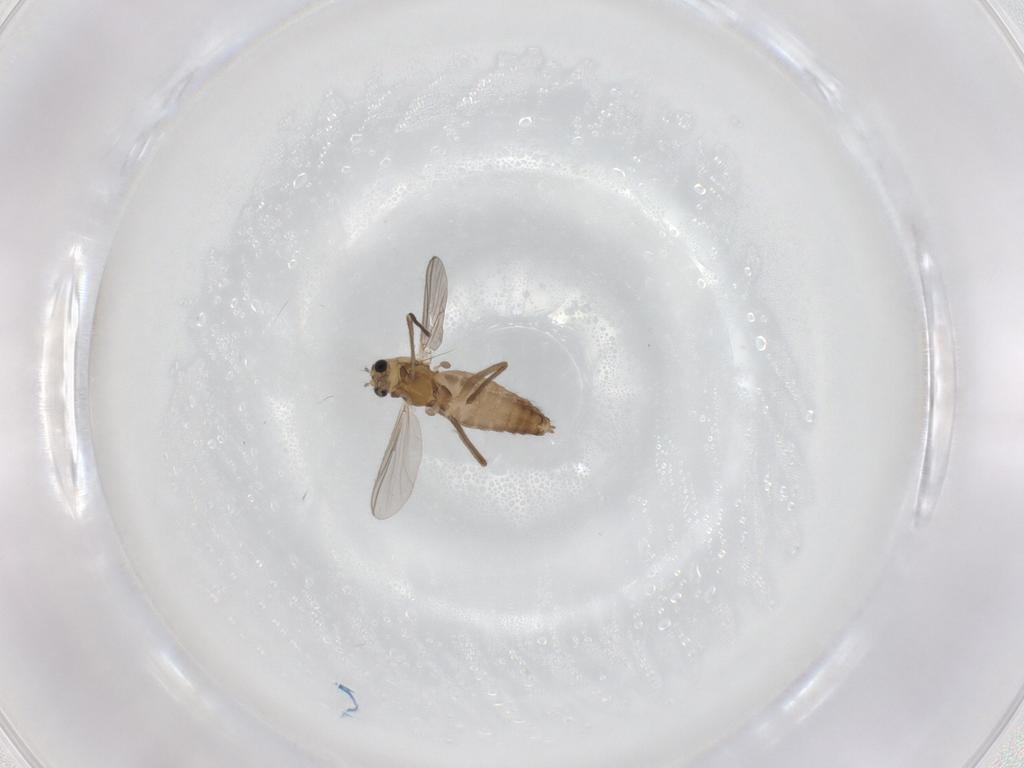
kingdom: Animalia
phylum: Arthropoda
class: Insecta
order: Diptera
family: Chironomidae
